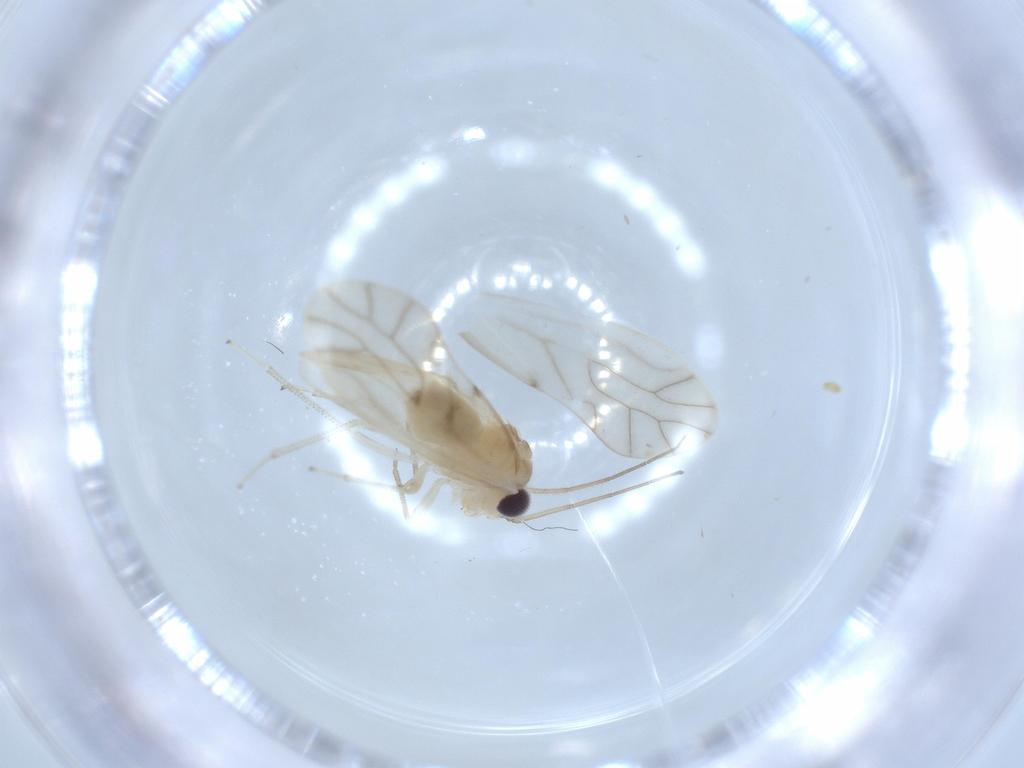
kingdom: Animalia
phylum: Arthropoda
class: Insecta
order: Psocodea
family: Caeciliusidae
